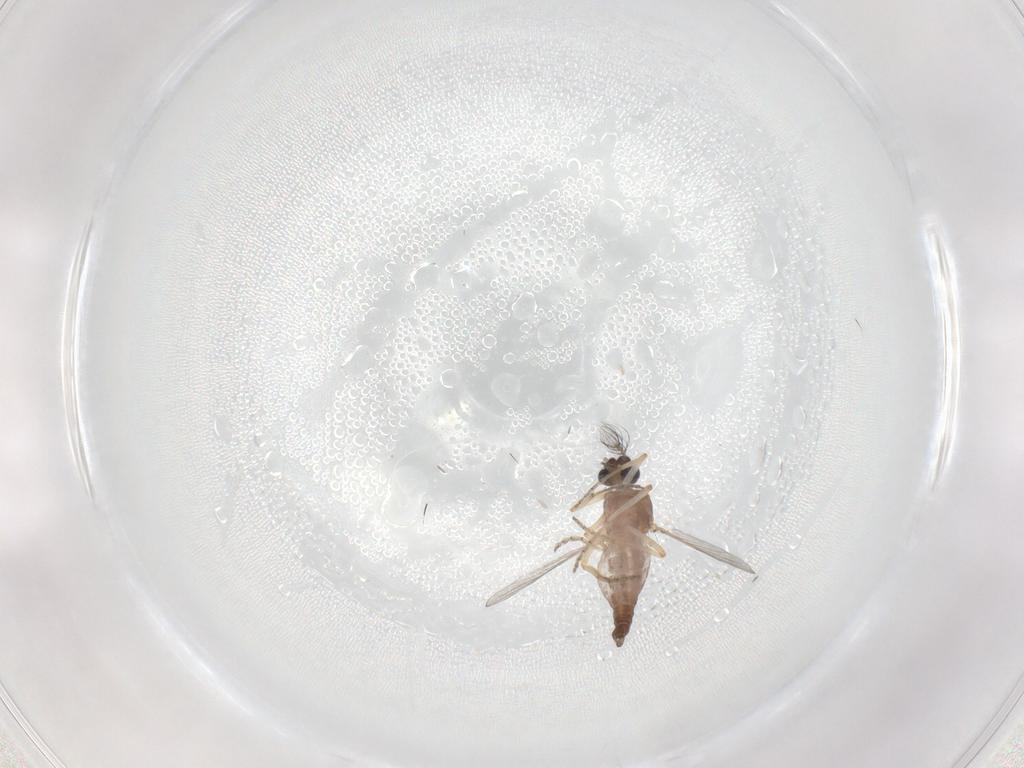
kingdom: Animalia
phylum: Arthropoda
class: Insecta
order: Diptera
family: Ceratopogonidae
